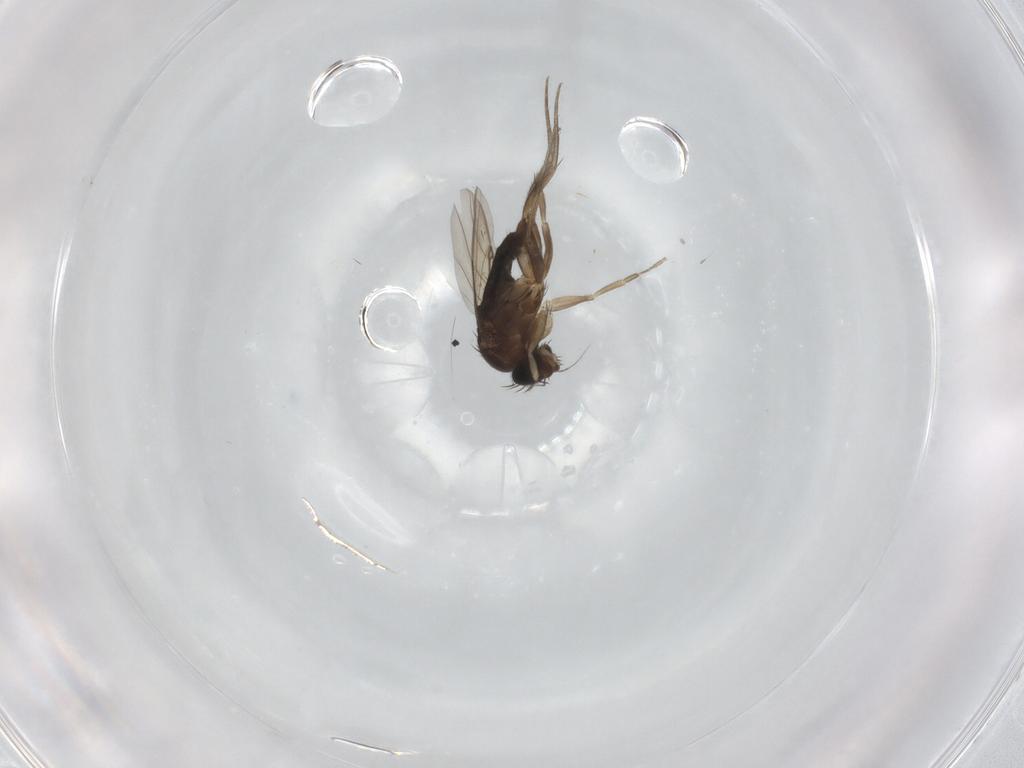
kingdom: Animalia
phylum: Arthropoda
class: Insecta
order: Diptera
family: Phoridae
